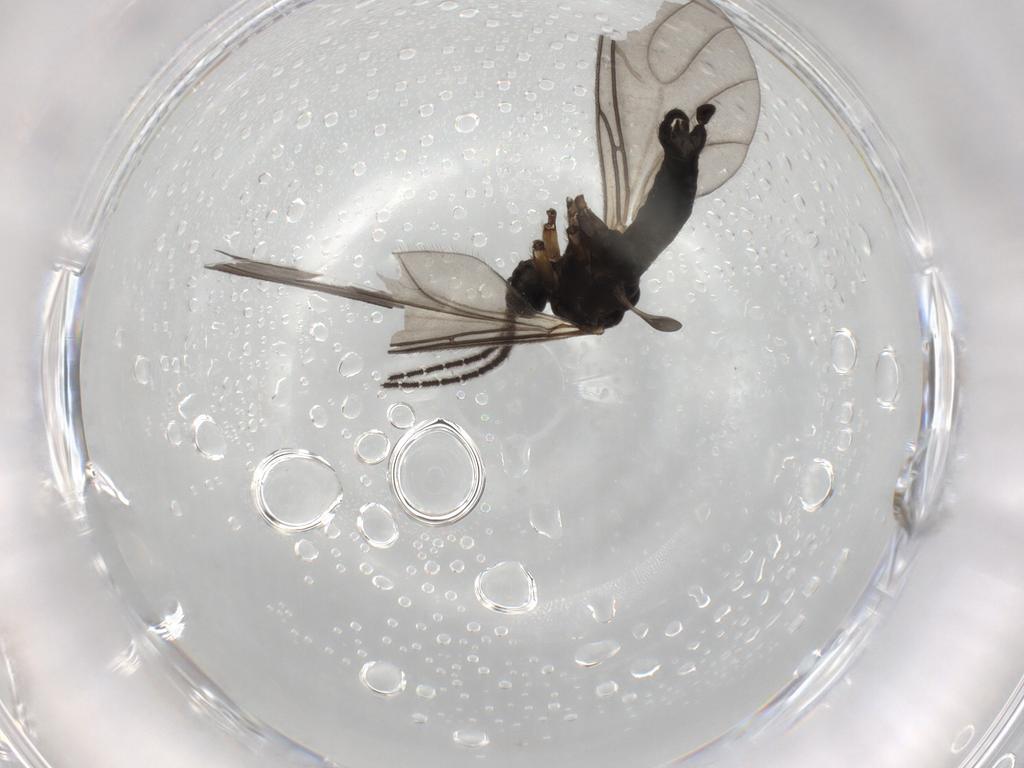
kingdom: Animalia
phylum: Arthropoda
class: Insecta
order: Diptera
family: Sciaridae
